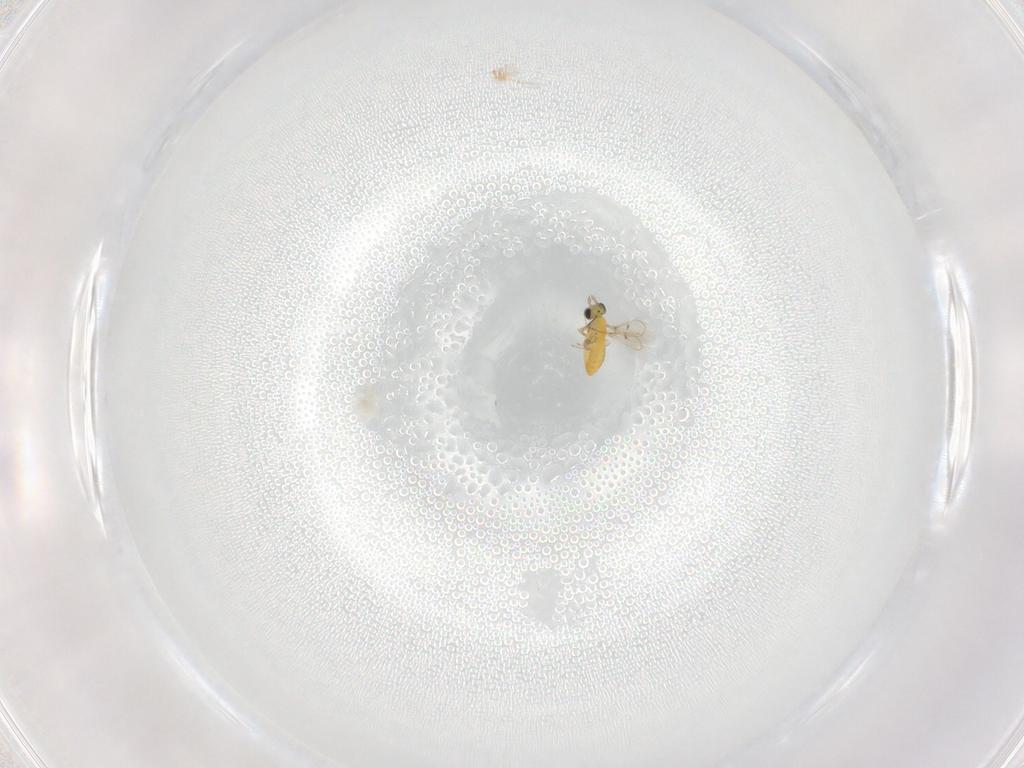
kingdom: Animalia
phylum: Arthropoda
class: Insecta
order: Hymenoptera
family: Trichogrammatidae
